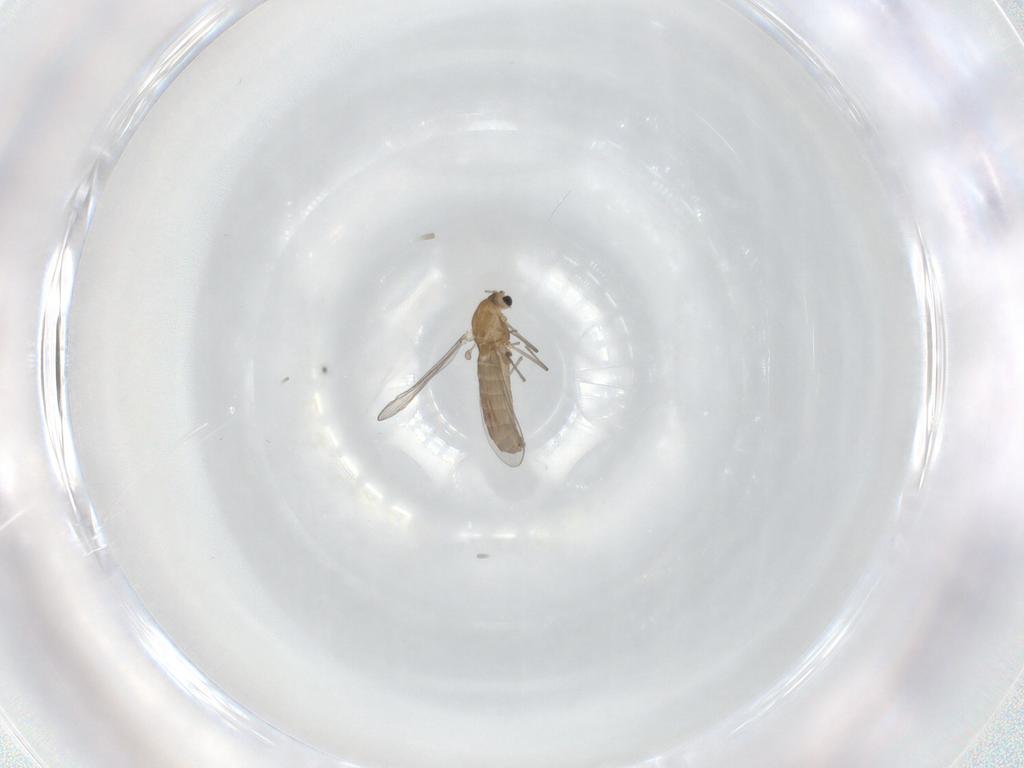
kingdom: Animalia
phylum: Arthropoda
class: Insecta
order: Diptera
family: Chironomidae
